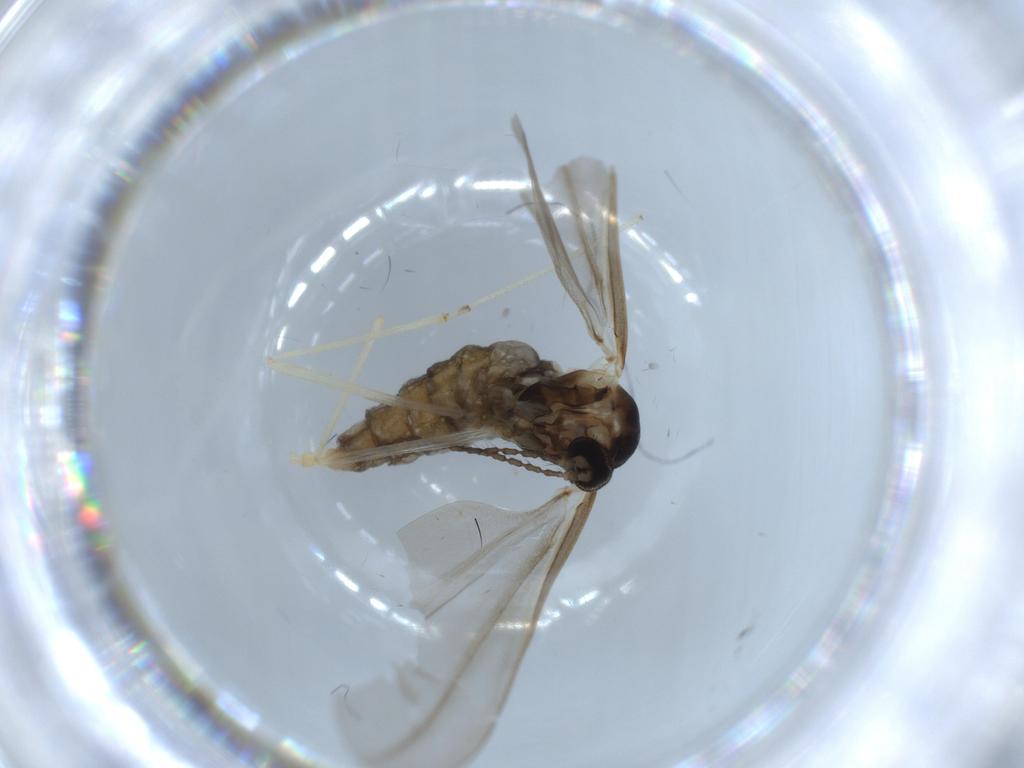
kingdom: Animalia
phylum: Arthropoda
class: Insecta
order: Diptera
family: Cecidomyiidae
